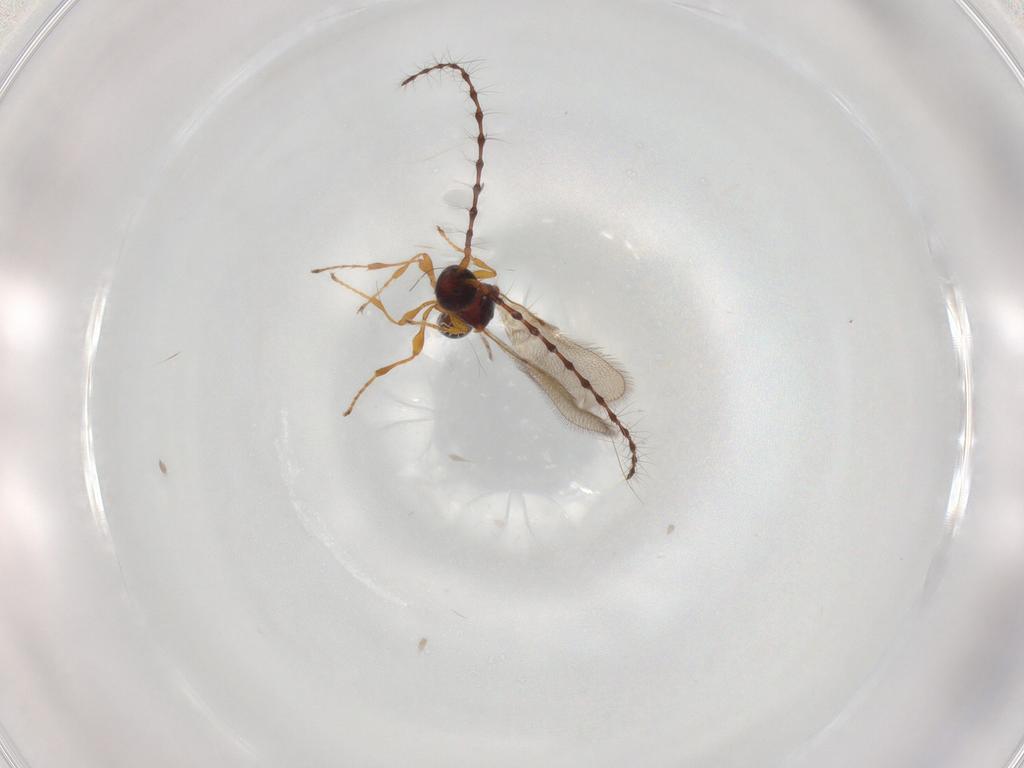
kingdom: Animalia
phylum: Arthropoda
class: Insecta
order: Hymenoptera
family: Diapriidae
